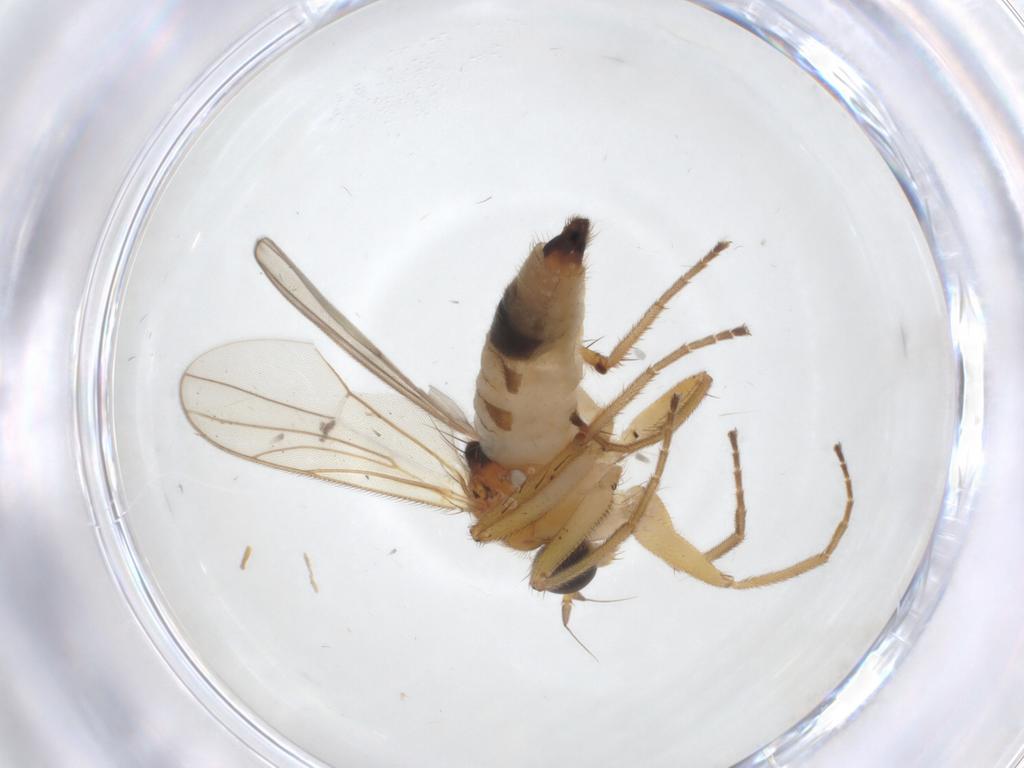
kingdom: Animalia
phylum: Arthropoda
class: Insecta
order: Diptera
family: Hybotidae
